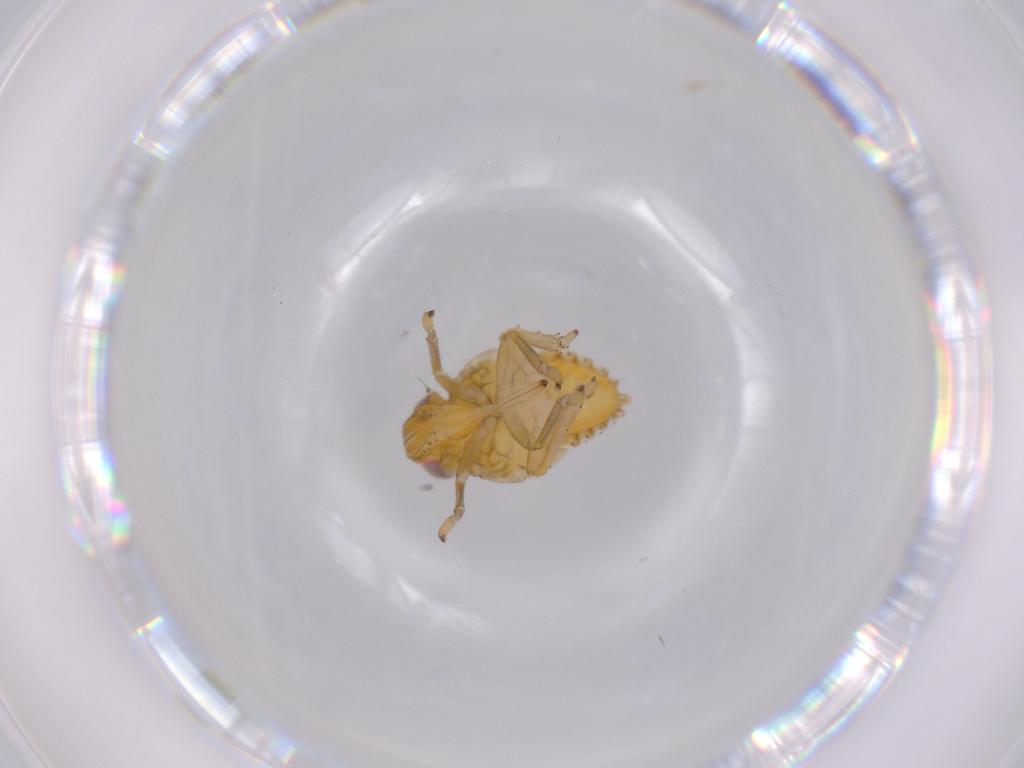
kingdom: Animalia
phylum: Arthropoda
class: Insecta
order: Hemiptera
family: Issidae
